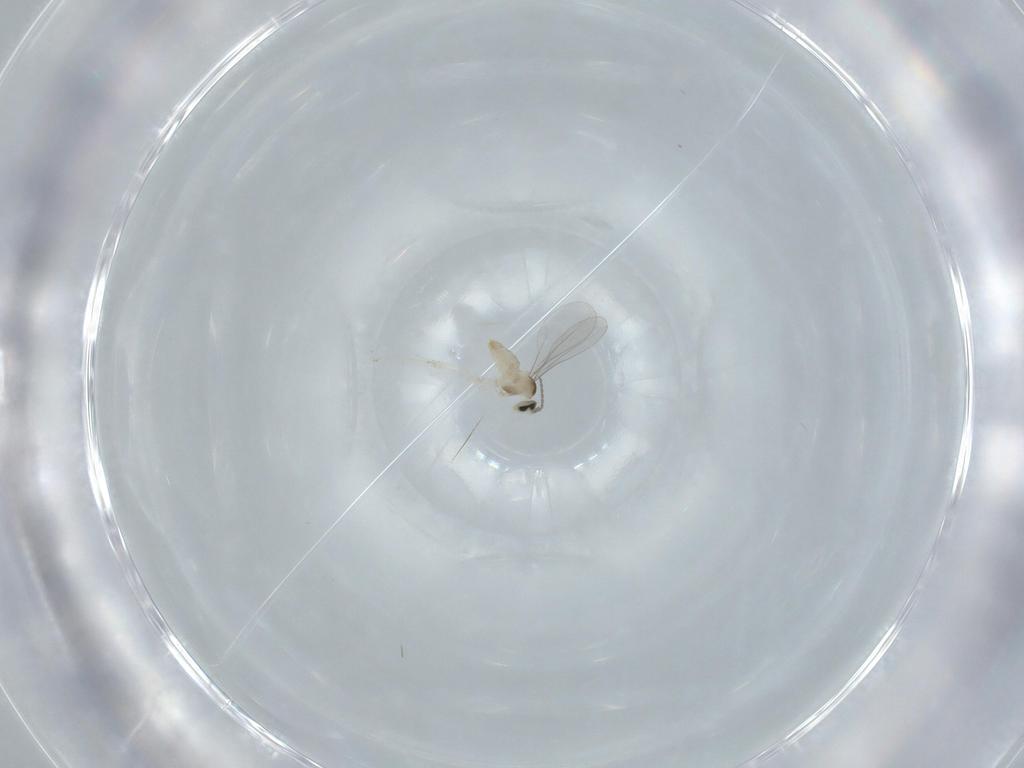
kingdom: Animalia
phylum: Arthropoda
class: Insecta
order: Diptera
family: Cecidomyiidae
